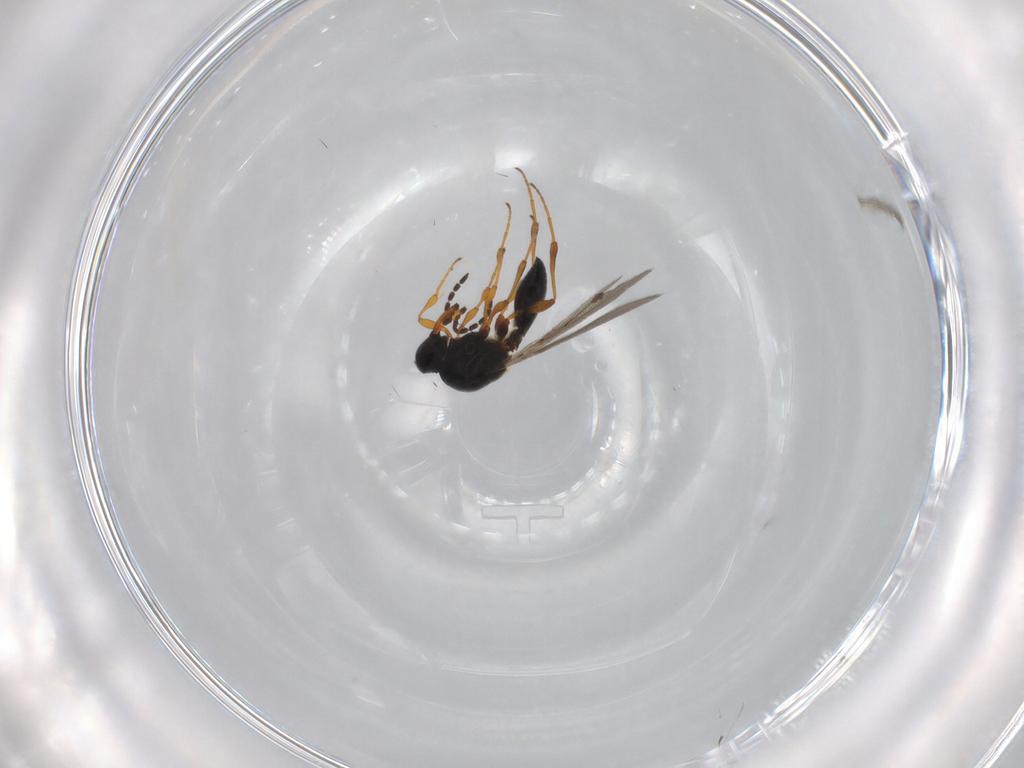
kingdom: Animalia
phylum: Arthropoda
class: Insecta
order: Hymenoptera
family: Platygastridae
